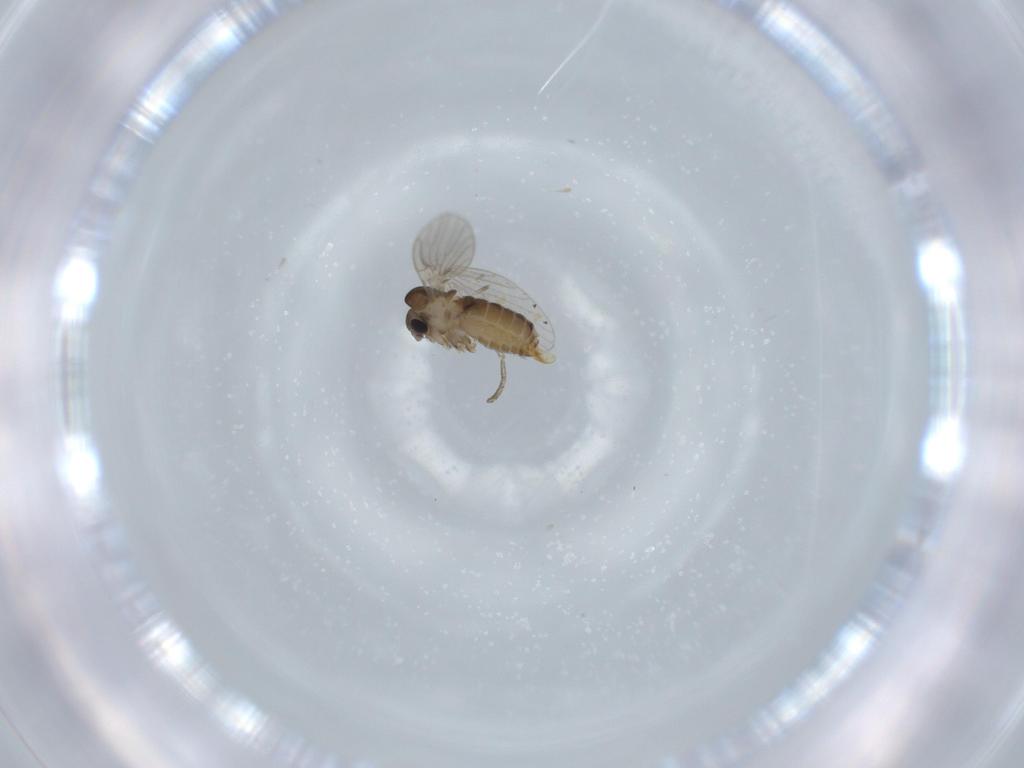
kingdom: Animalia
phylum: Arthropoda
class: Insecta
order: Diptera
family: Psychodidae
